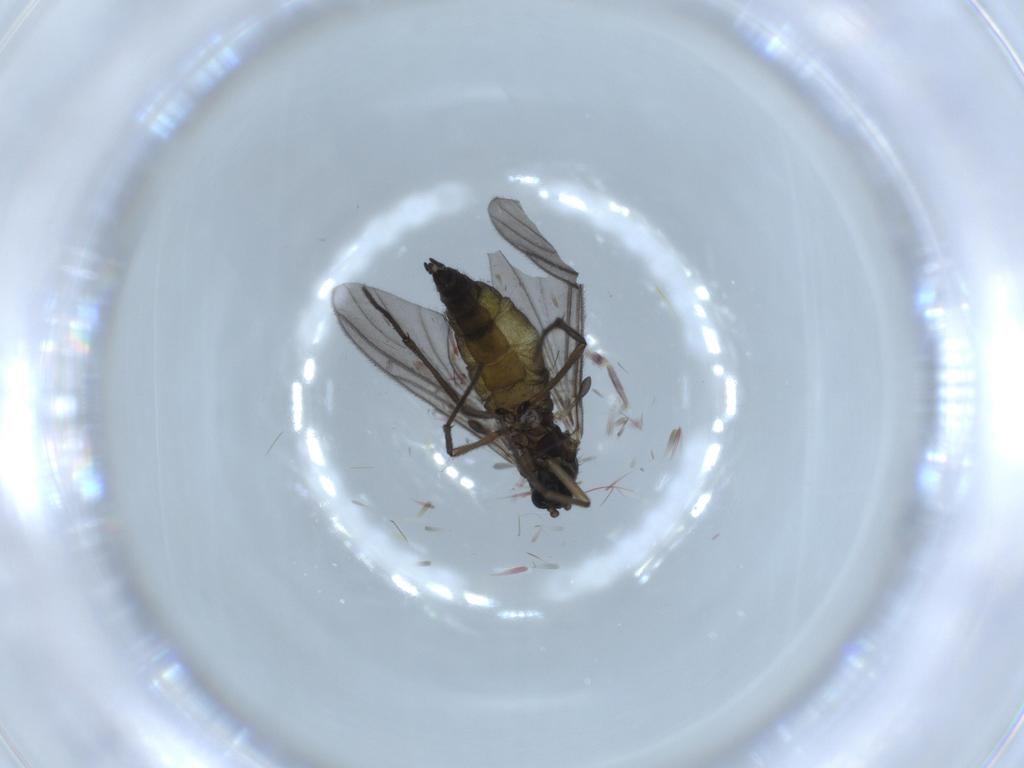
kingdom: Animalia
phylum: Arthropoda
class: Insecta
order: Diptera
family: Sciaridae
